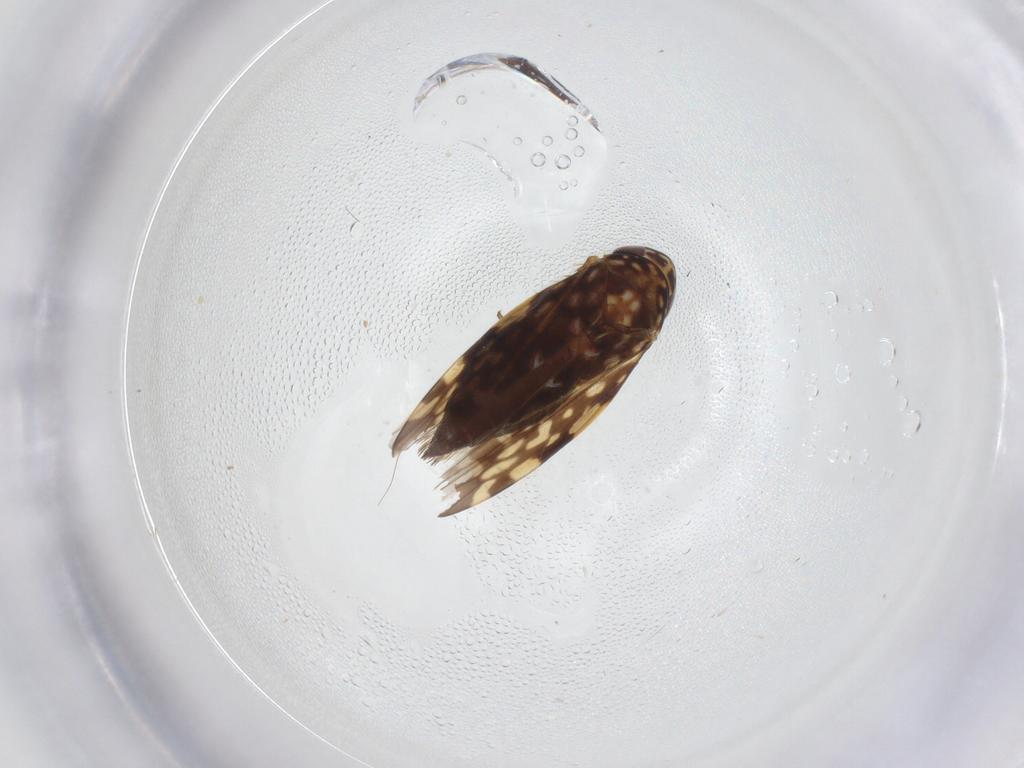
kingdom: Animalia
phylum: Arthropoda
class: Insecta
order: Hemiptera
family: Cicadellidae
